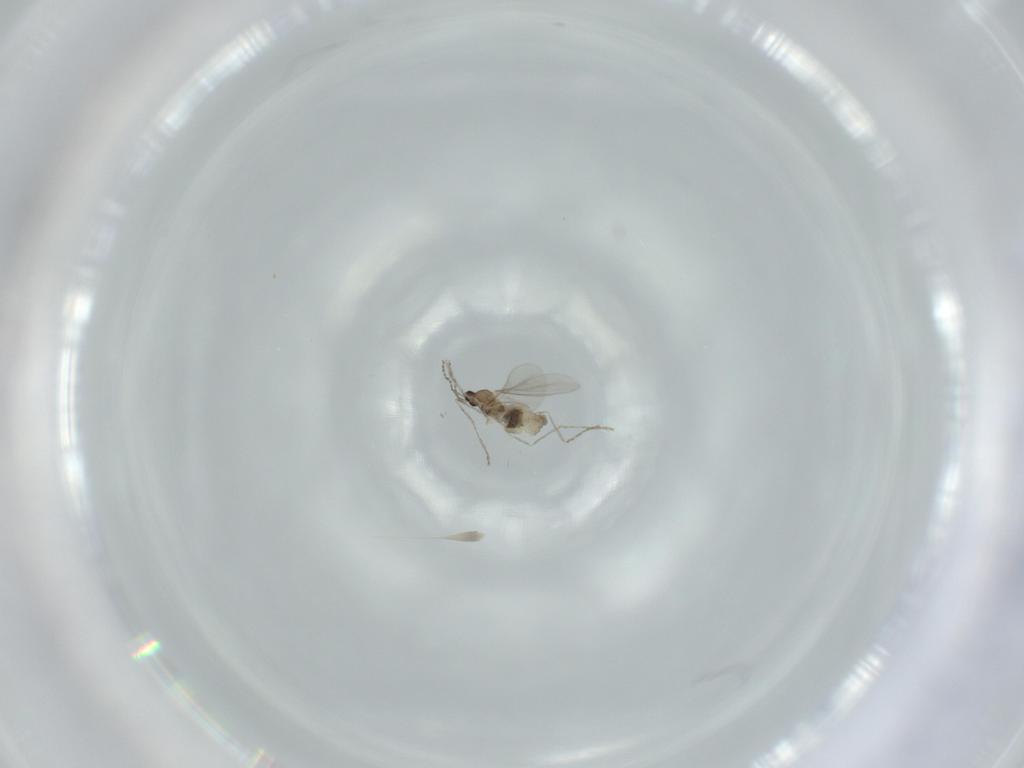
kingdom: Animalia
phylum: Arthropoda
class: Insecta
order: Diptera
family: Cecidomyiidae
